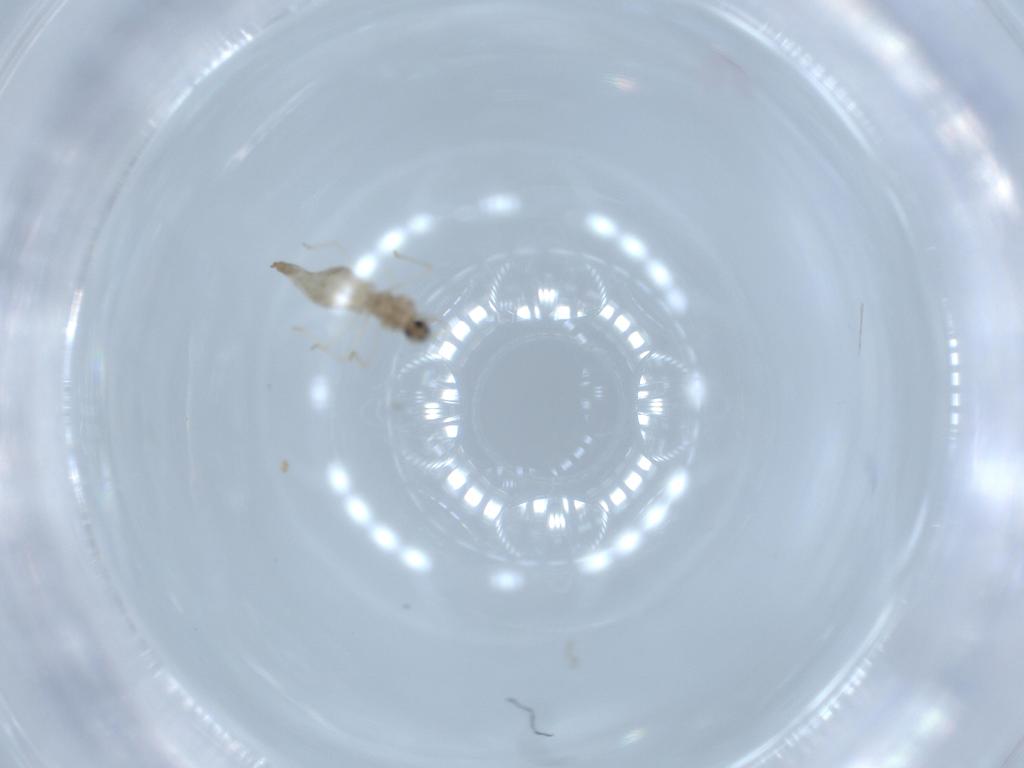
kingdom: Animalia
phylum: Arthropoda
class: Insecta
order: Diptera
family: Cecidomyiidae
